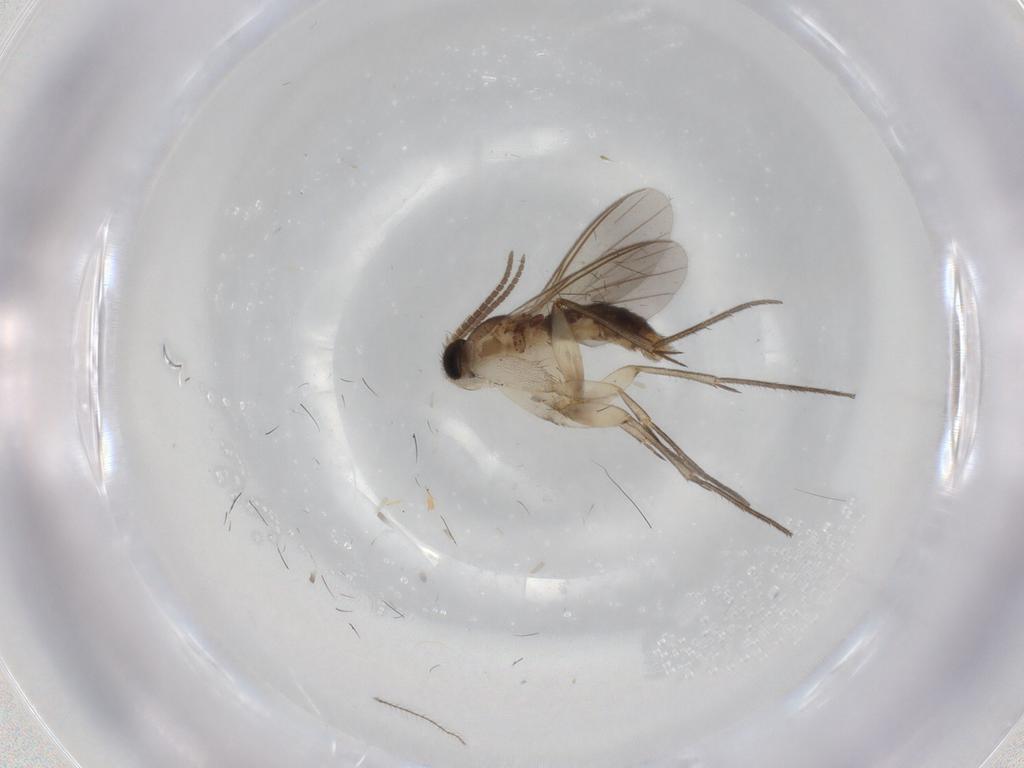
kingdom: Animalia
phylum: Arthropoda
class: Insecta
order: Diptera
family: Mycetophilidae
